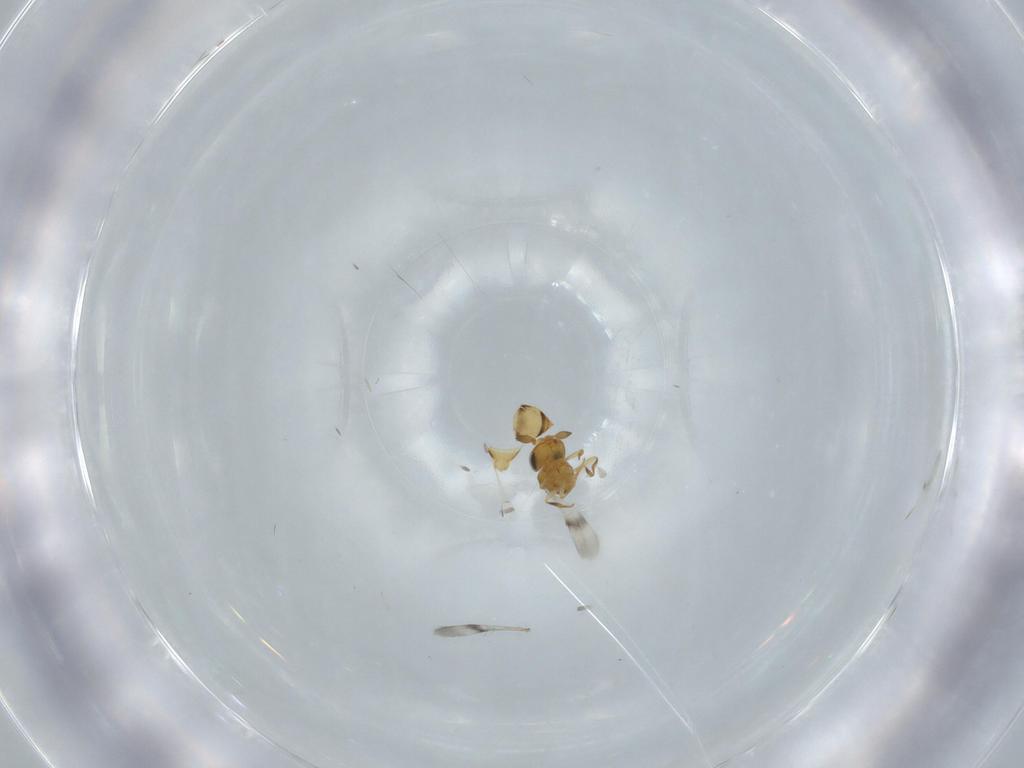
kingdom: Animalia
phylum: Arthropoda
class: Insecta
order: Hymenoptera
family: Scelionidae
